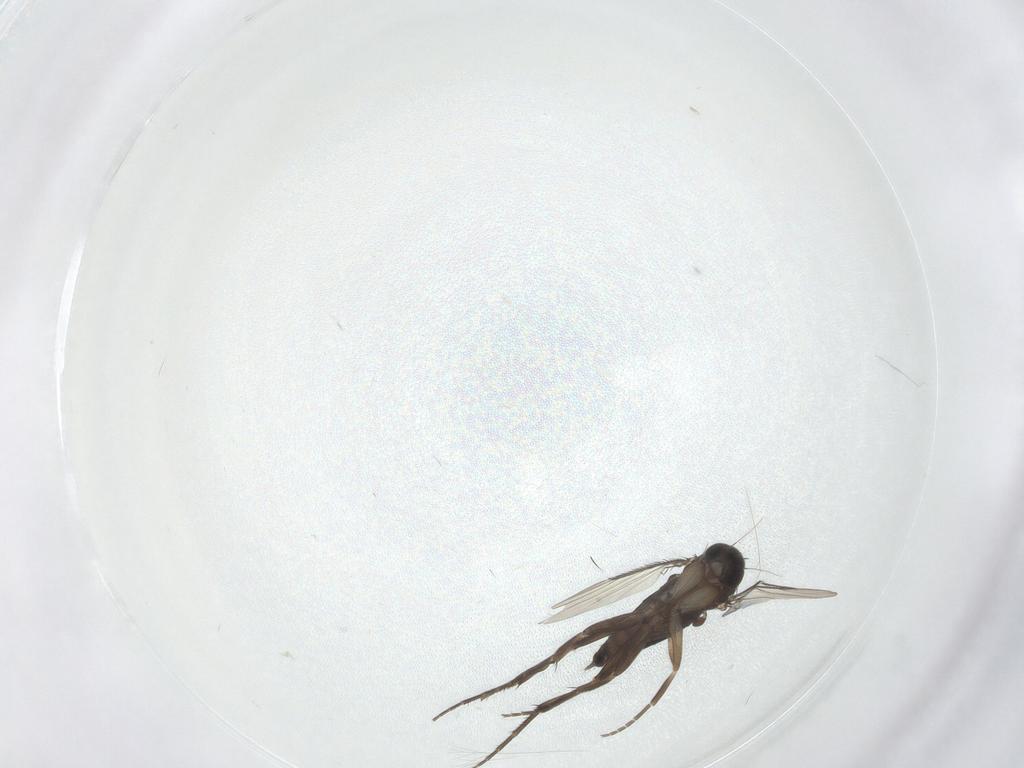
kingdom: Animalia
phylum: Arthropoda
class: Insecta
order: Diptera
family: Phoridae
